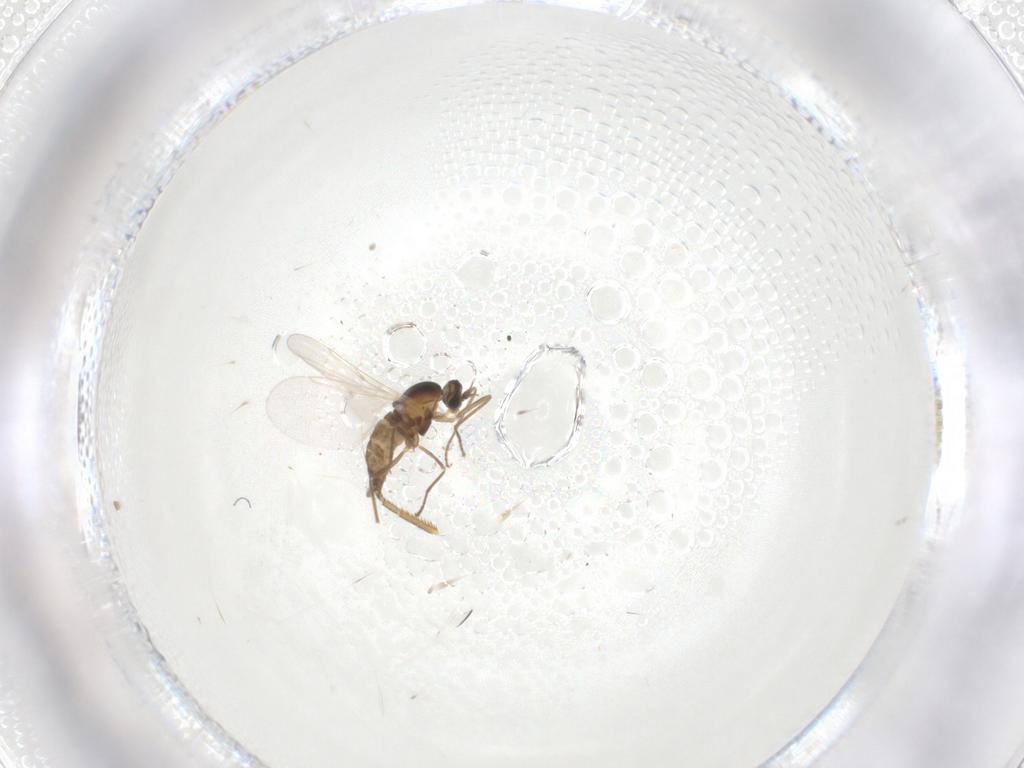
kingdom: Animalia
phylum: Arthropoda
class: Insecta
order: Diptera
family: Cecidomyiidae
